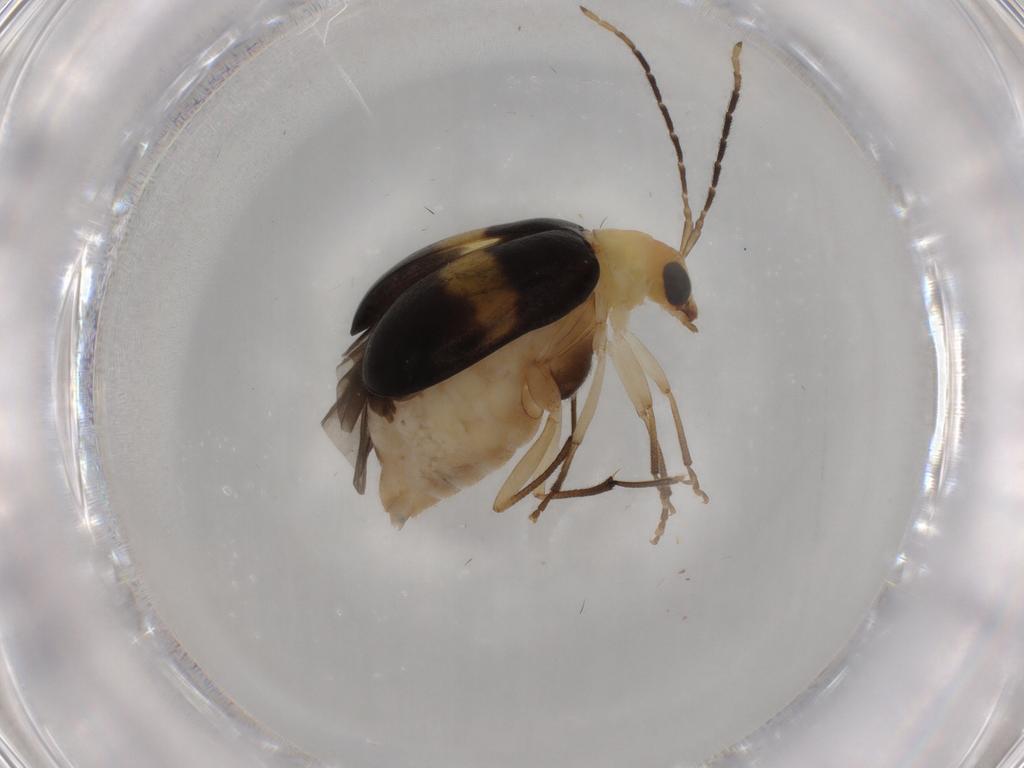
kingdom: Animalia
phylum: Arthropoda
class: Insecta
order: Coleoptera
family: Chrysomelidae
